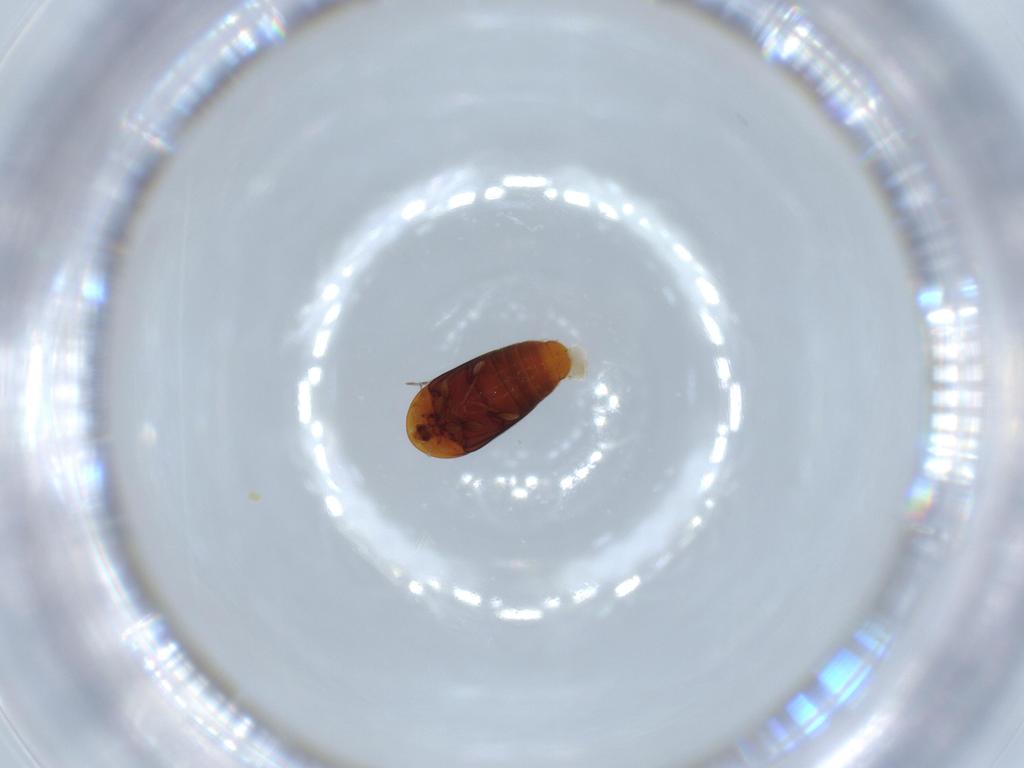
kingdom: Animalia
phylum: Arthropoda
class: Insecta
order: Coleoptera
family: Corylophidae
